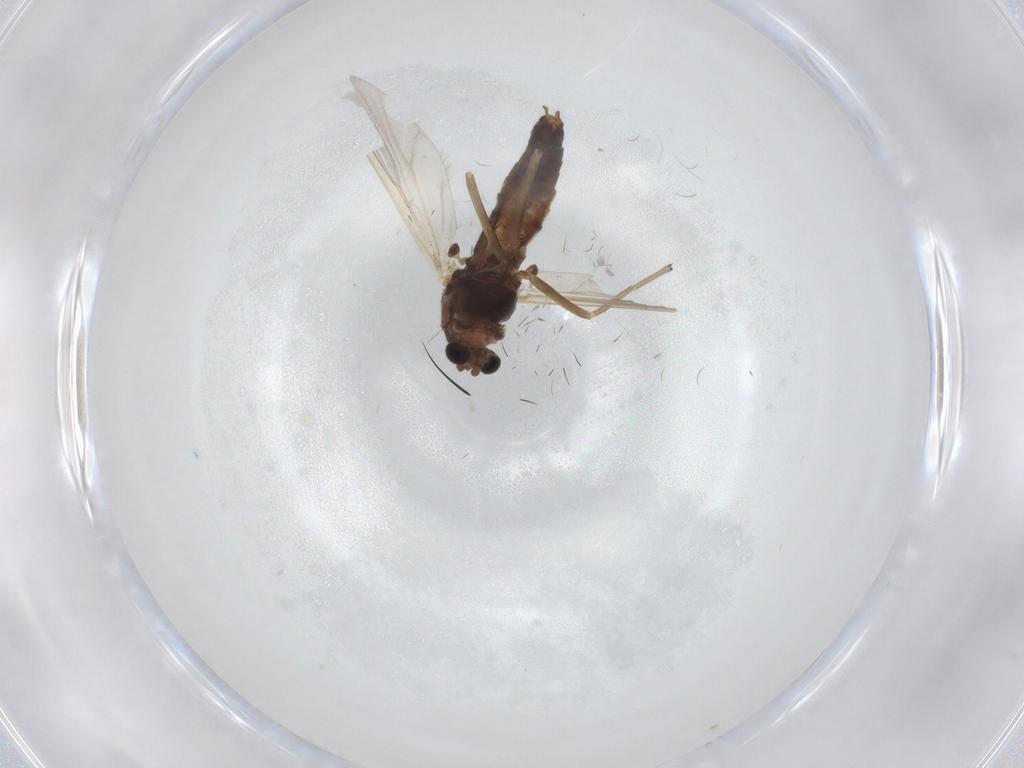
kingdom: Animalia
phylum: Arthropoda
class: Insecta
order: Diptera
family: Chironomidae
